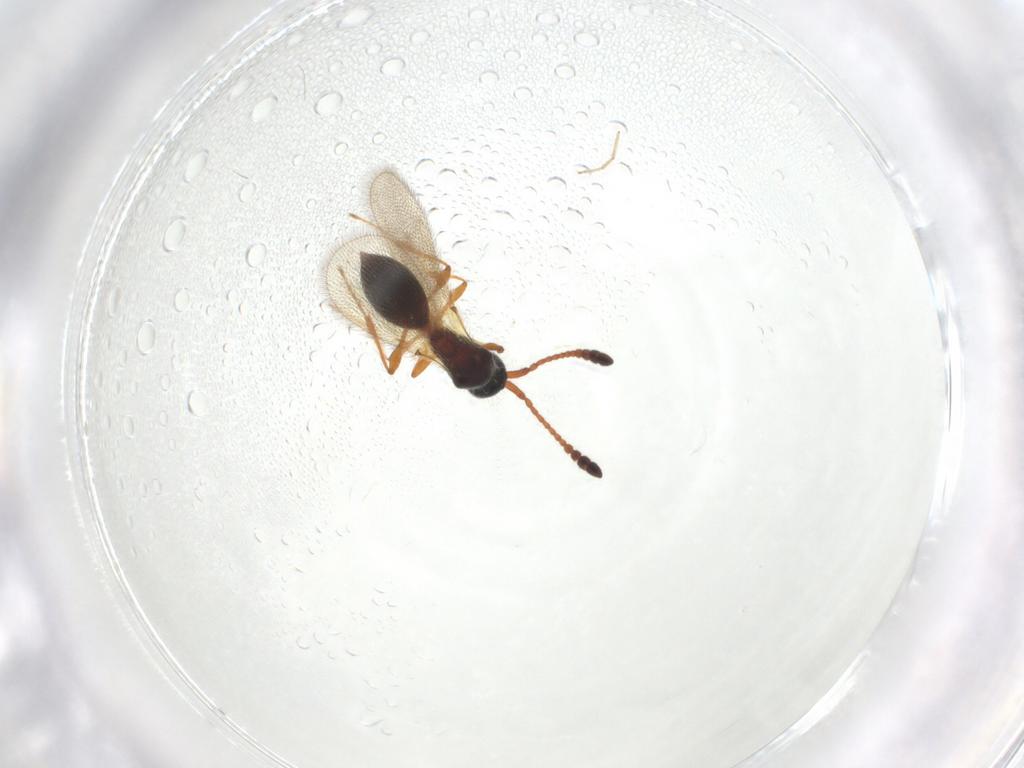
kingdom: Animalia
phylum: Arthropoda
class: Insecta
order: Hymenoptera
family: Diapriidae
